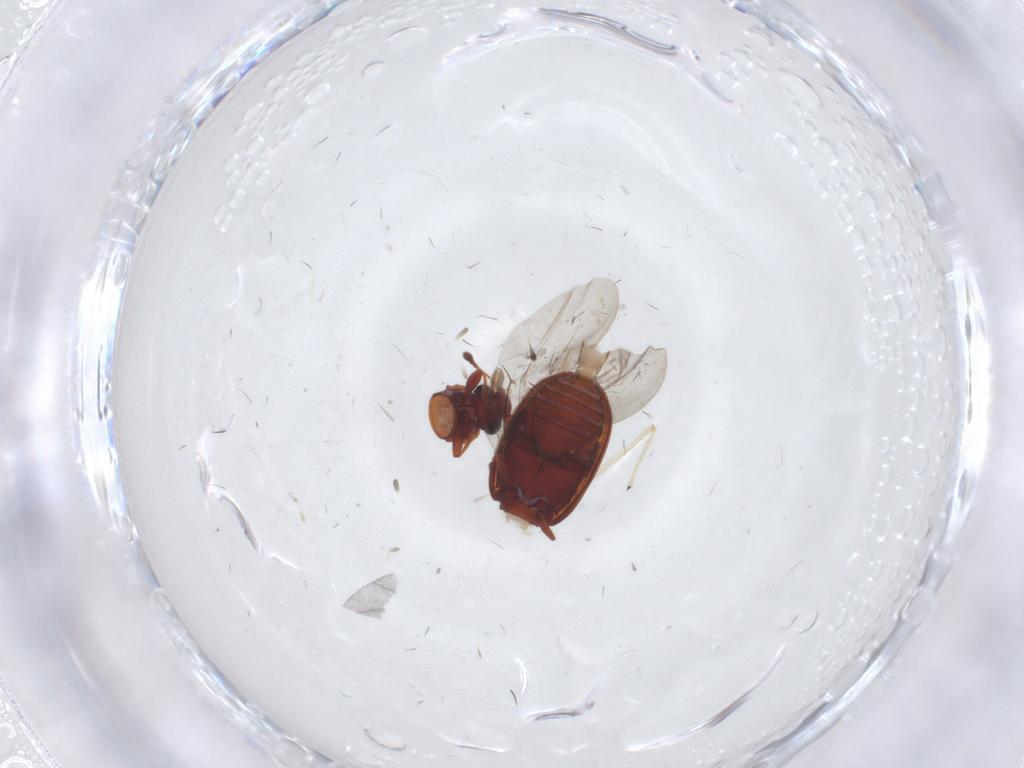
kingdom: Animalia
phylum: Arthropoda
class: Insecta
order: Coleoptera
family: Latridiidae
